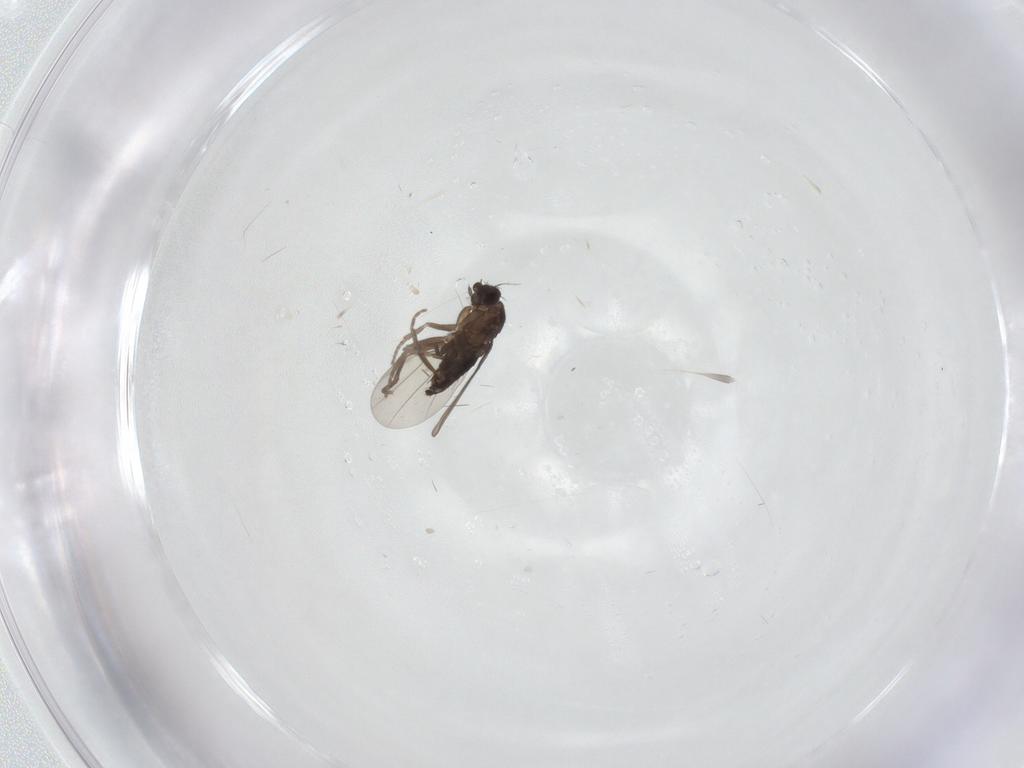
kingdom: Animalia
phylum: Arthropoda
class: Insecta
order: Diptera
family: Phoridae
